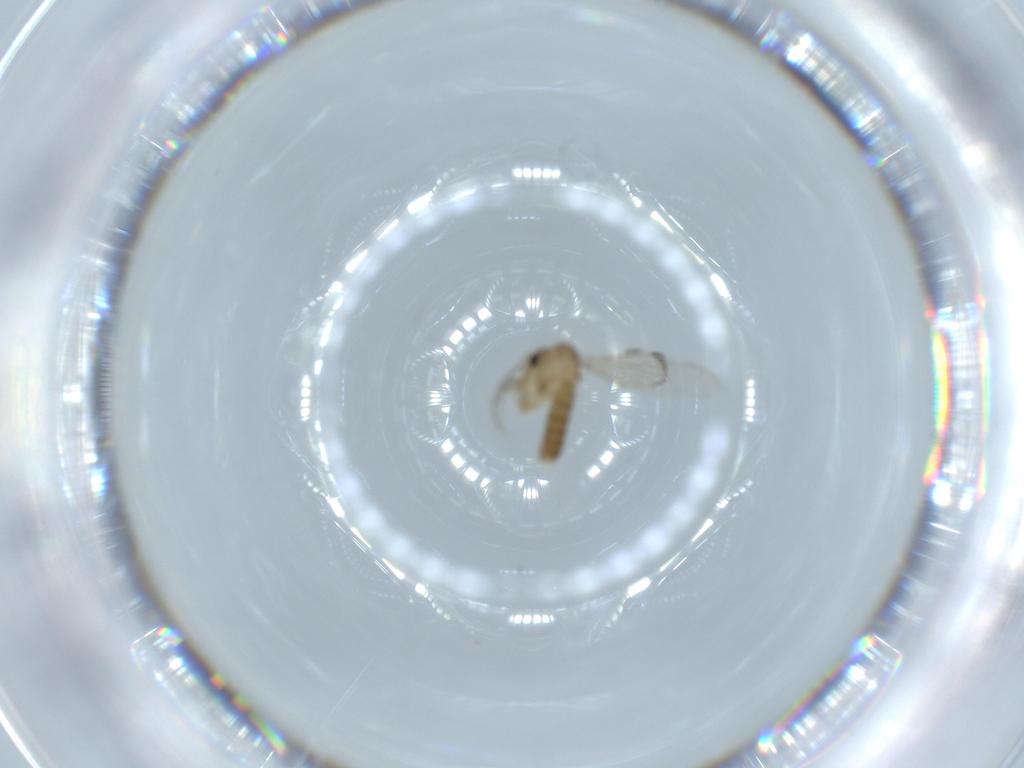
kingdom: Animalia
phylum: Arthropoda
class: Insecta
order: Diptera
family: Psychodidae
